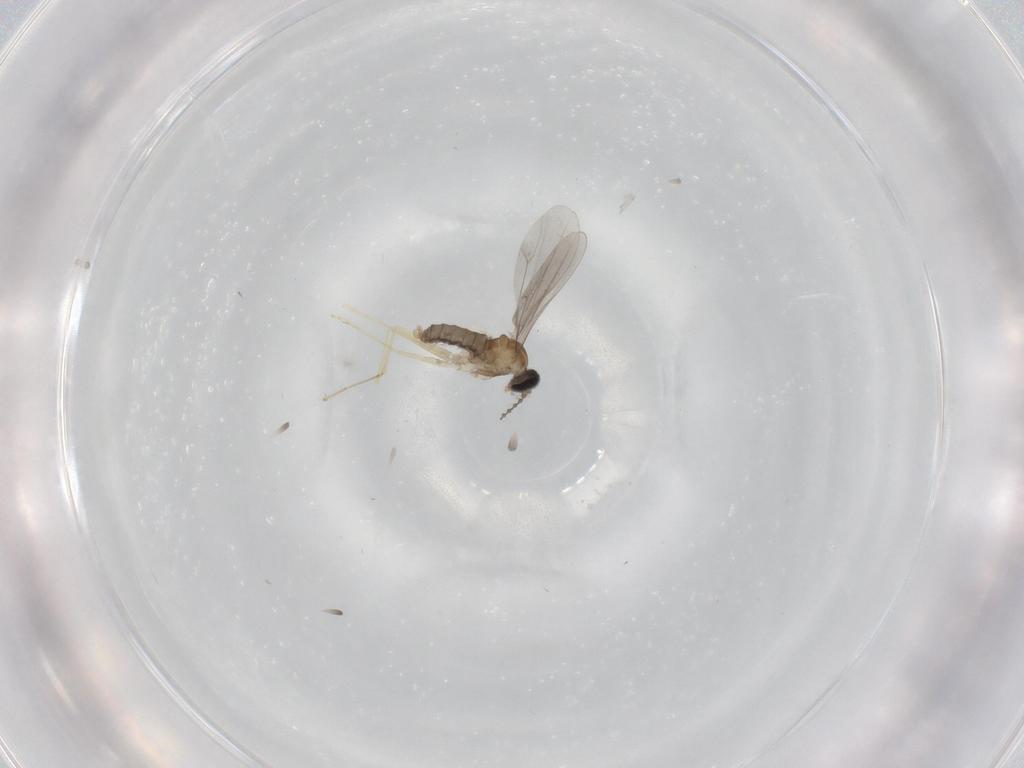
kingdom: Animalia
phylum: Arthropoda
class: Insecta
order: Diptera
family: Cecidomyiidae
